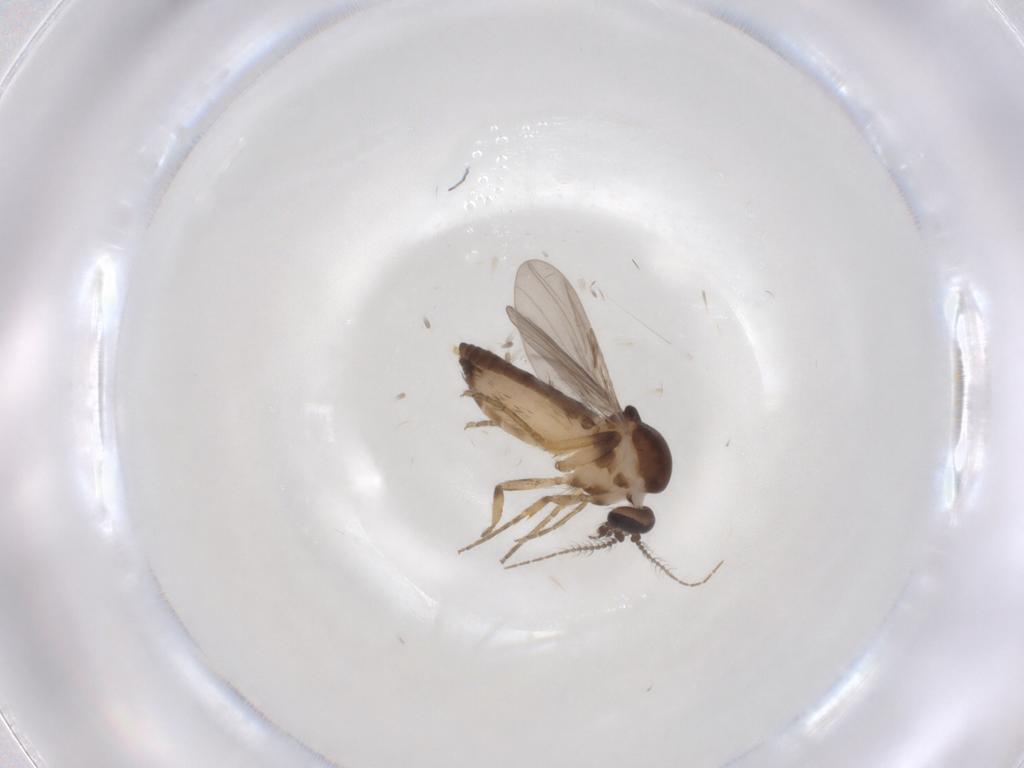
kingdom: Animalia
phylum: Arthropoda
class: Insecta
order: Diptera
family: Ceratopogonidae
